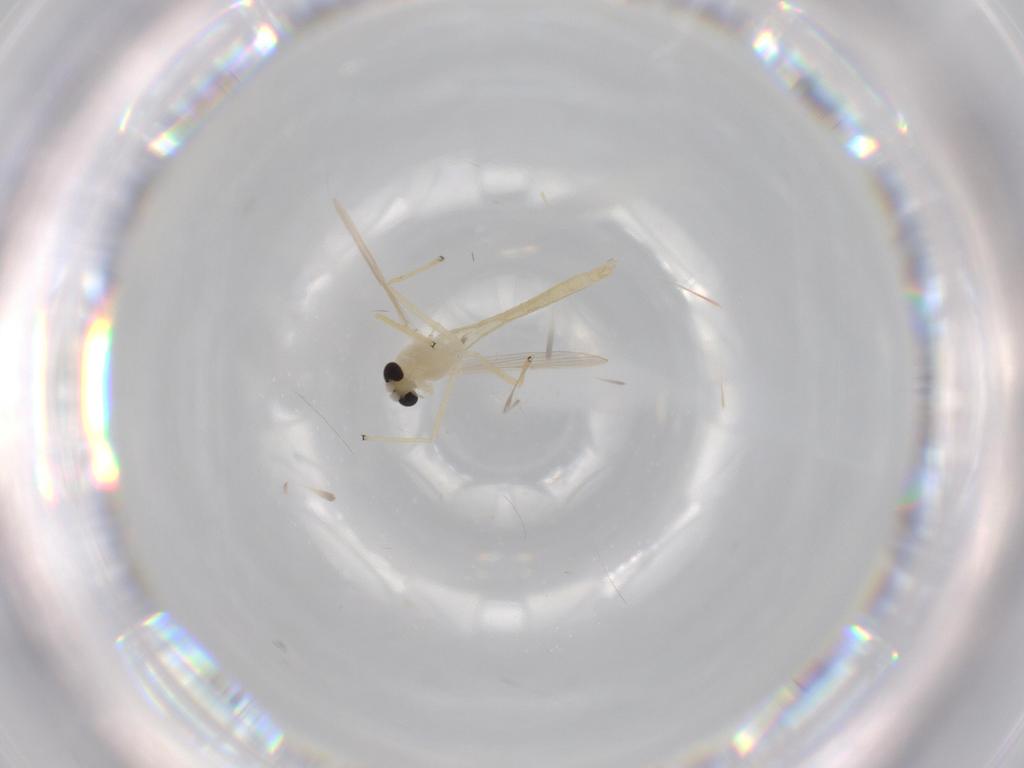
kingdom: Animalia
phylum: Arthropoda
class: Insecta
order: Diptera
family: Chironomidae
